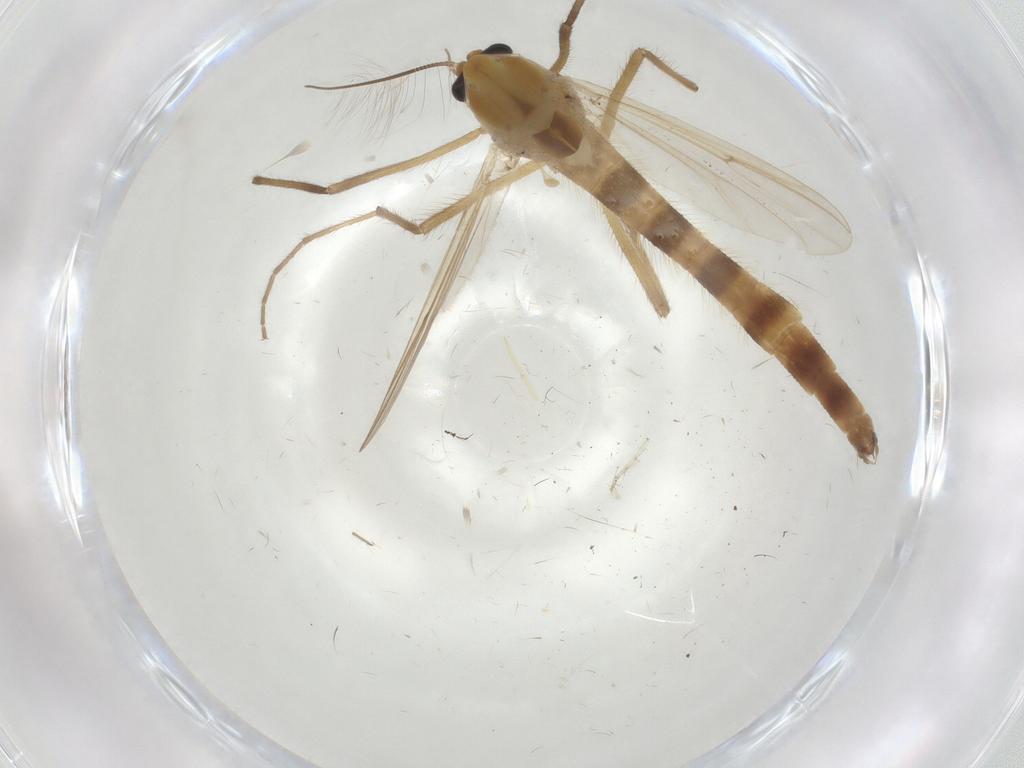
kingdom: Animalia
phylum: Arthropoda
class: Insecta
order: Diptera
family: Chironomidae
